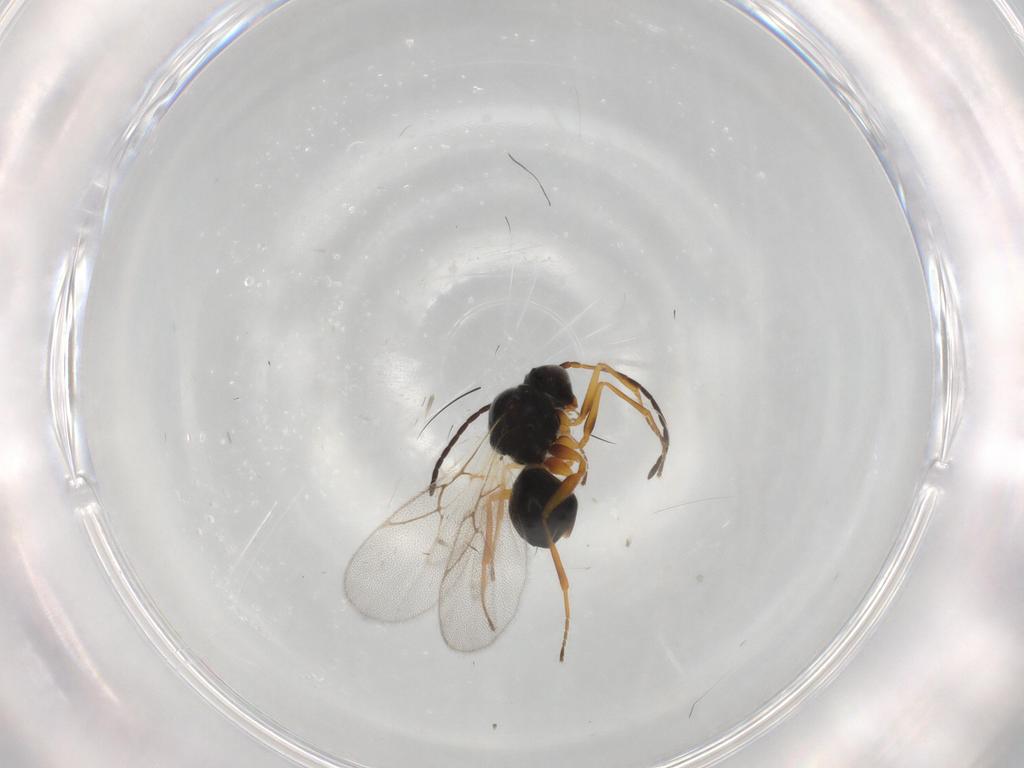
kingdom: Animalia
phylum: Arthropoda
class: Insecta
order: Hymenoptera
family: Figitidae
